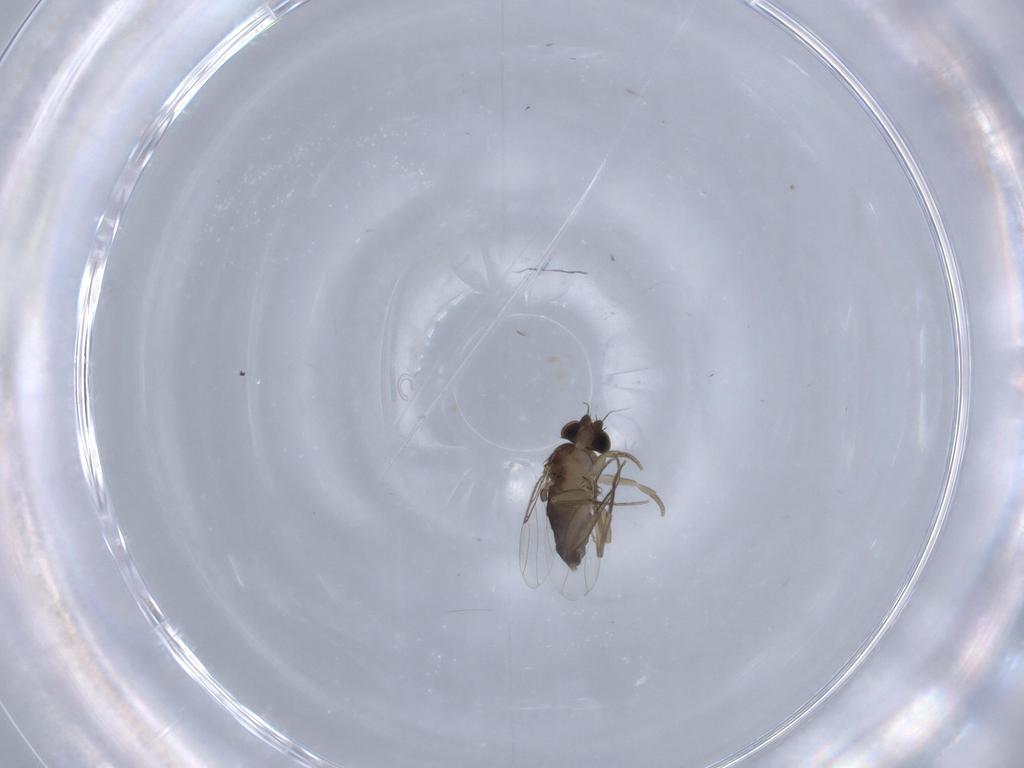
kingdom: Animalia
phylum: Arthropoda
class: Insecta
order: Diptera
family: Phoridae
